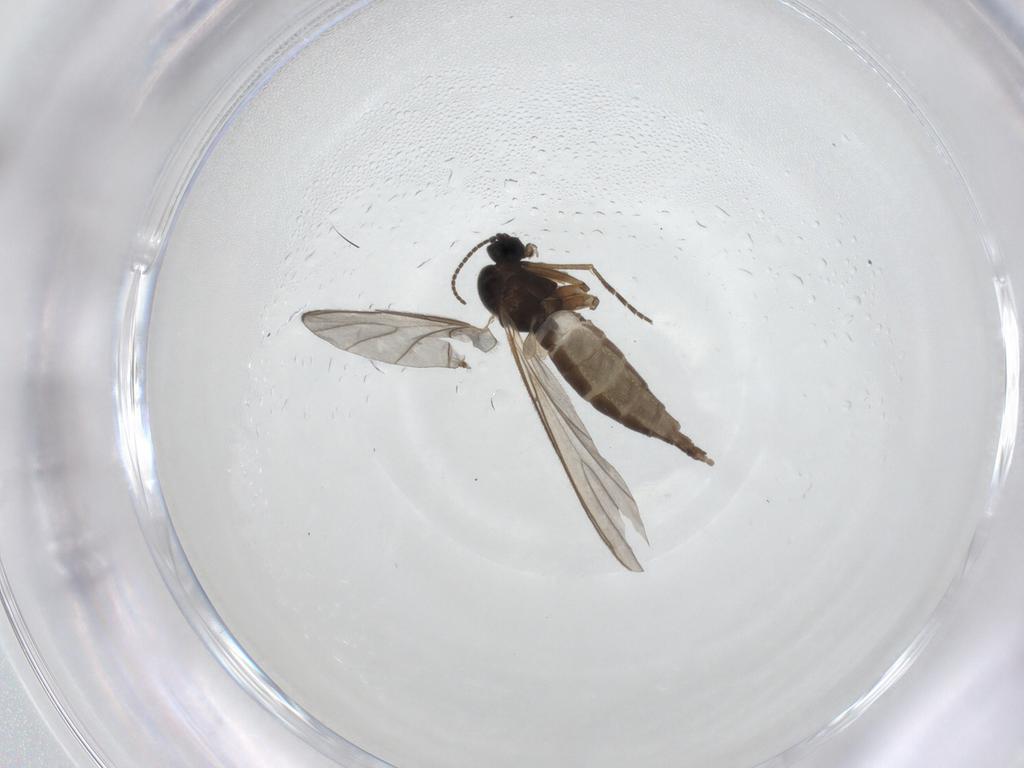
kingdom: Animalia
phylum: Arthropoda
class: Insecta
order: Diptera
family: Sciaridae
